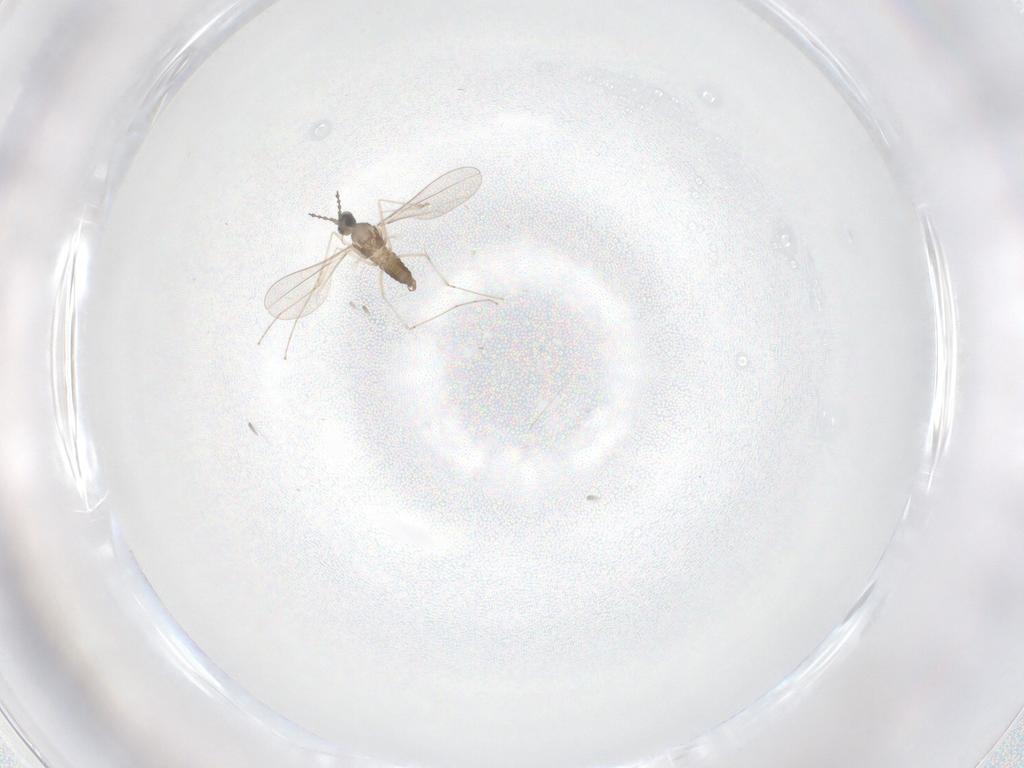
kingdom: Animalia
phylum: Arthropoda
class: Insecta
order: Diptera
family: Cecidomyiidae
